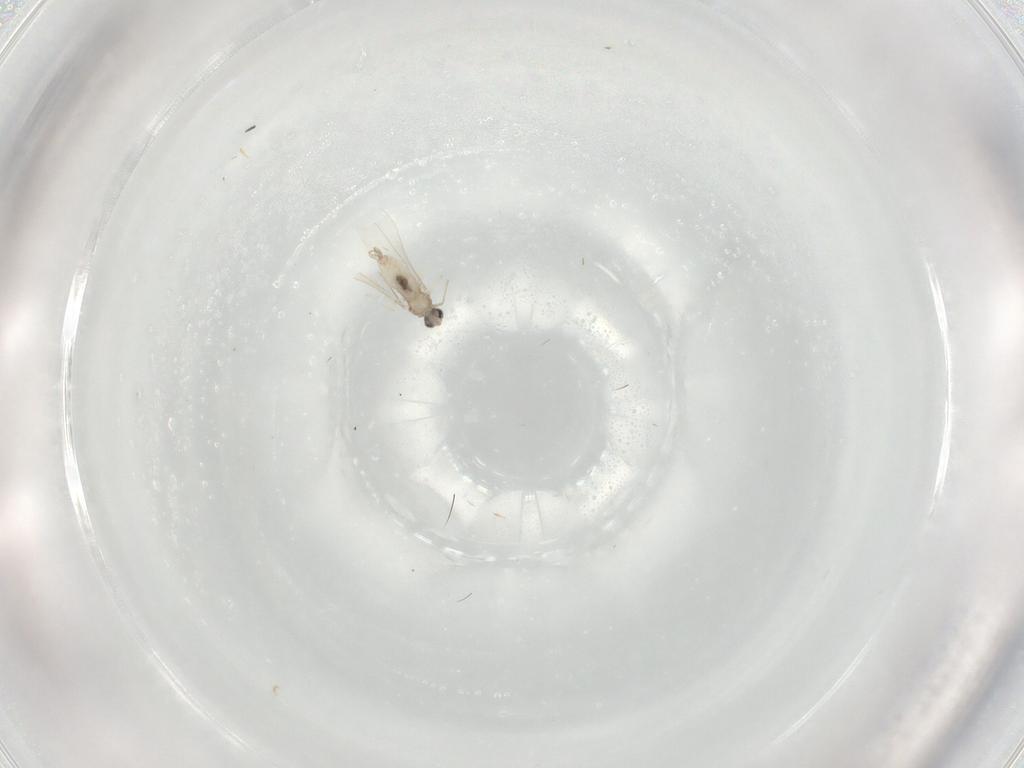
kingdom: Animalia
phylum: Arthropoda
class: Insecta
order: Diptera
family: Cecidomyiidae
